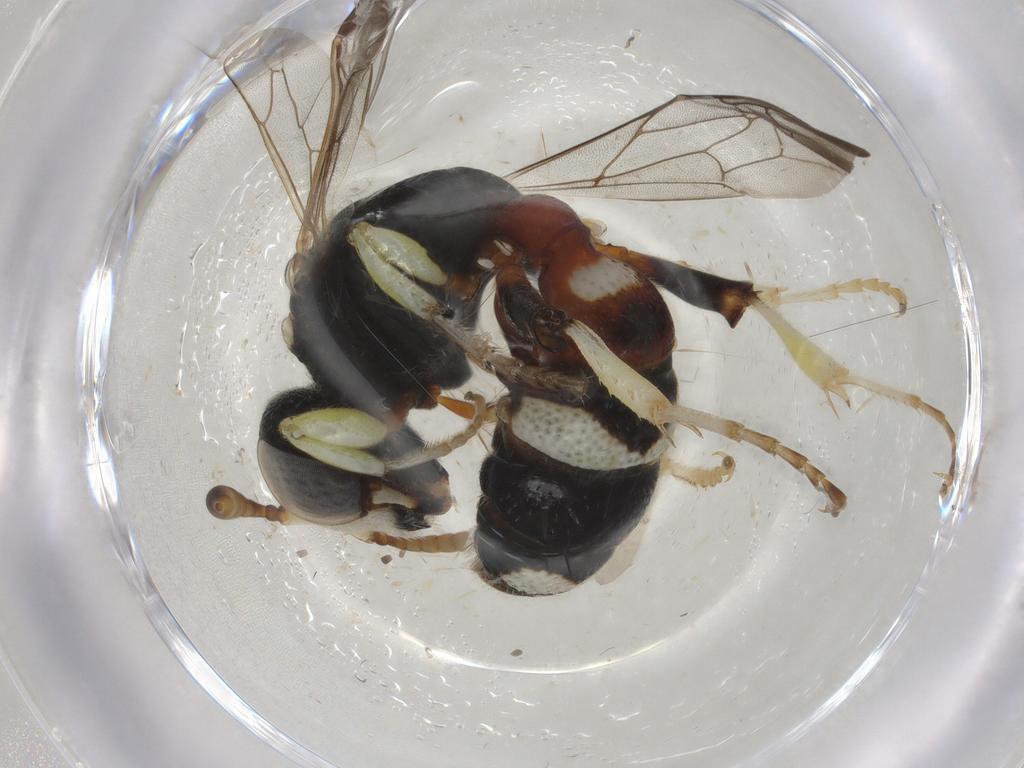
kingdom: Animalia
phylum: Arthropoda
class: Insecta
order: Hymenoptera
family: Crabronidae
